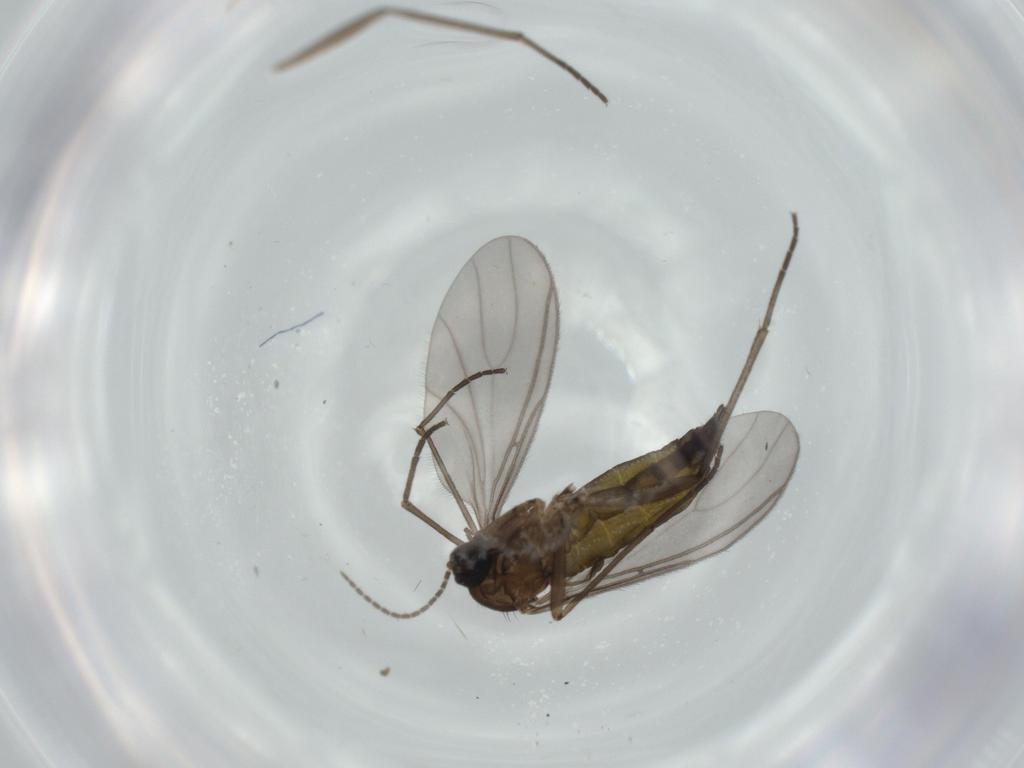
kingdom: Animalia
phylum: Arthropoda
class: Insecta
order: Diptera
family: Sciaridae
